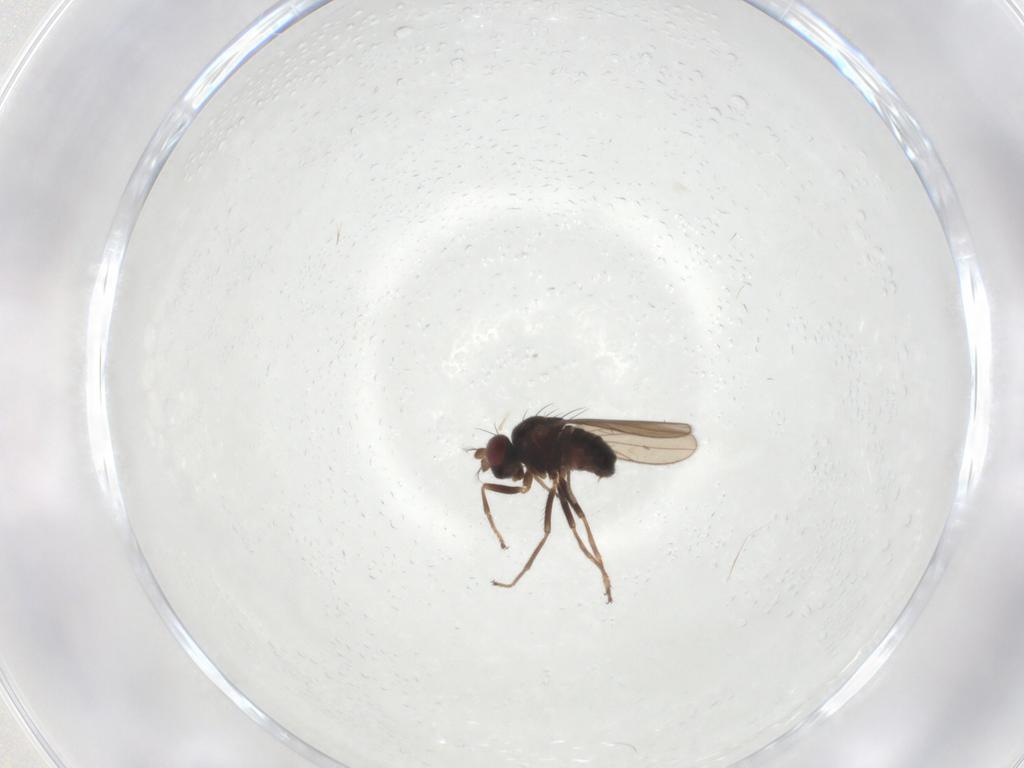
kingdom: Animalia
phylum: Arthropoda
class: Insecta
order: Diptera
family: Ephydridae
